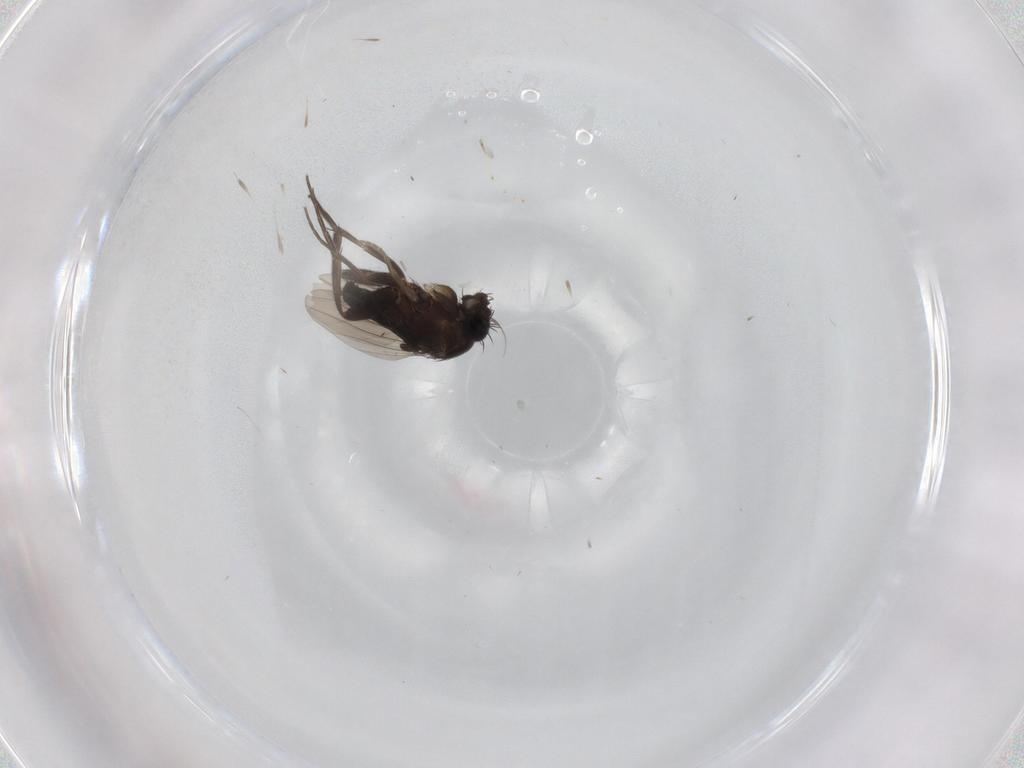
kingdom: Animalia
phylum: Arthropoda
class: Insecta
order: Diptera
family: Phoridae
